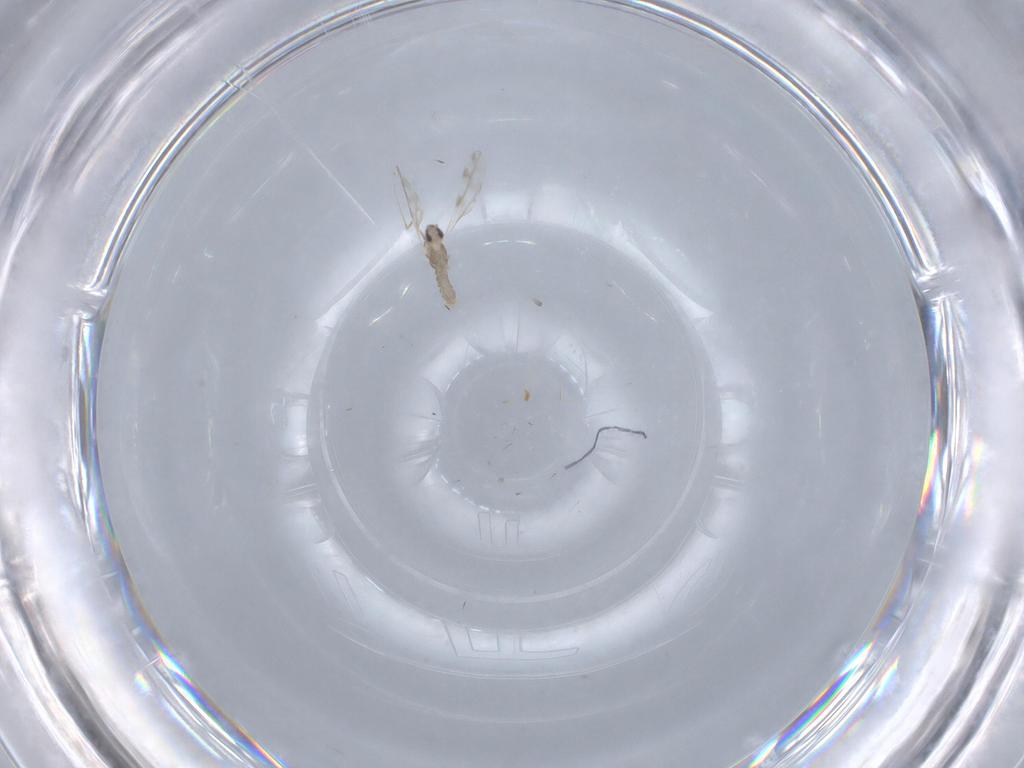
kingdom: Animalia
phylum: Arthropoda
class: Insecta
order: Diptera
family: Cecidomyiidae
